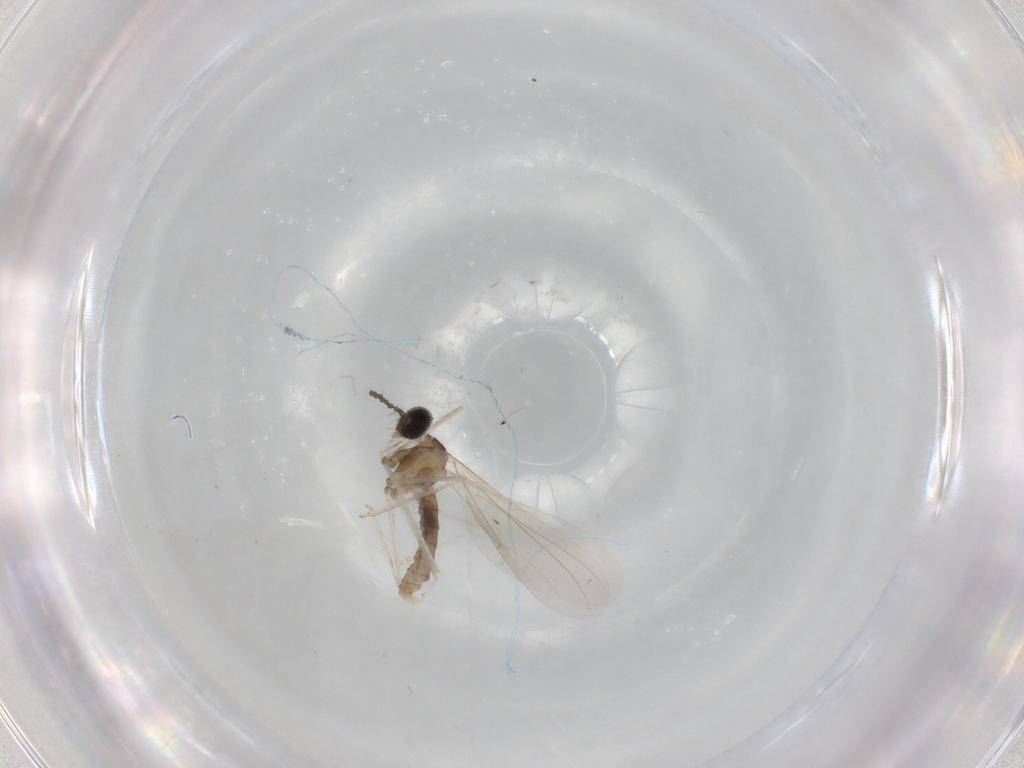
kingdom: Animalia
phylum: Arthropoda
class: Insecta
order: Diptera
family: Cecidomyiidae
